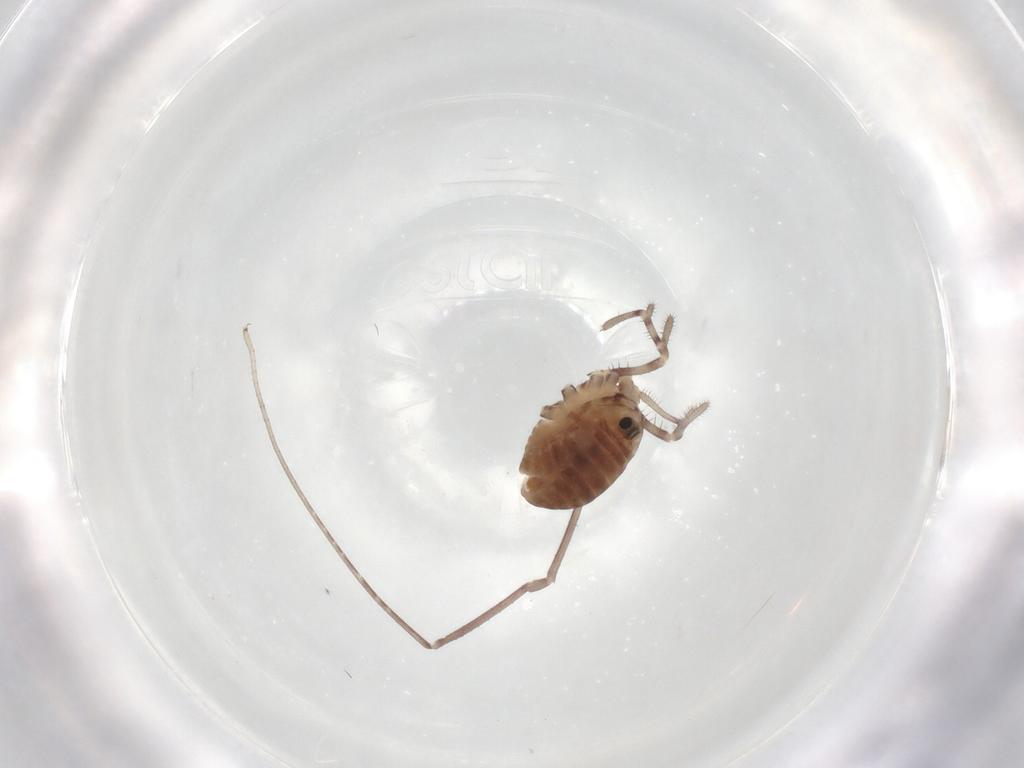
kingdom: Animalia
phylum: Arthropoda
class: Arachnida
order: Opiliones
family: Sclerosomatidae
